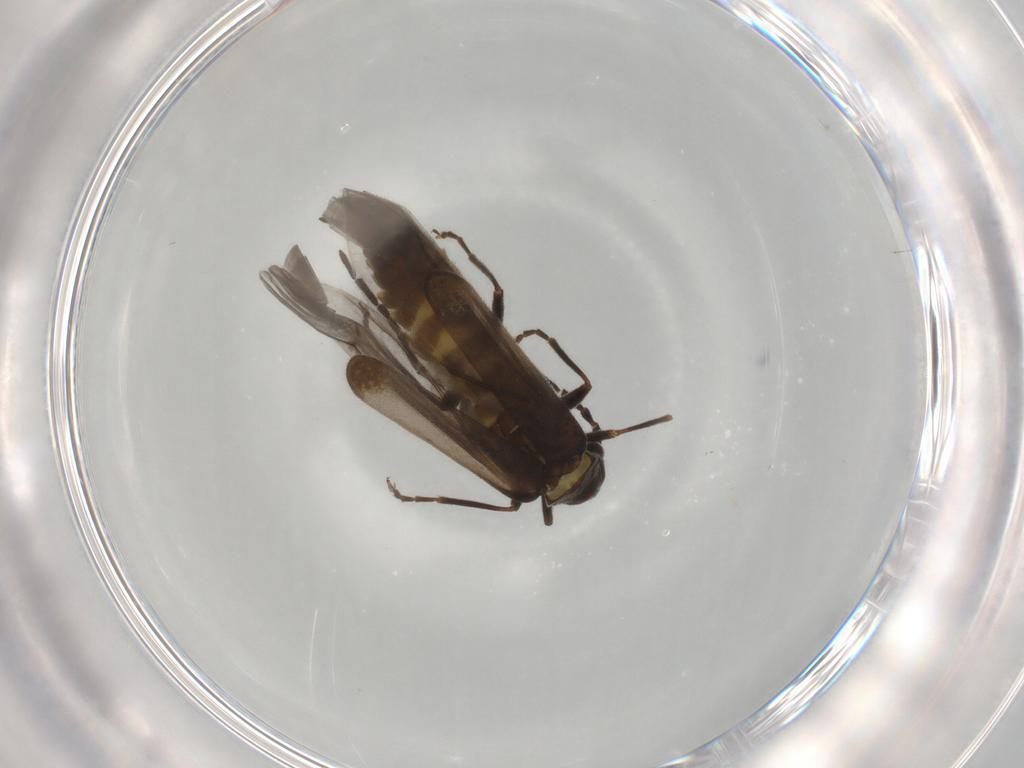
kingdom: Animalia
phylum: Arthropoda
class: Insecta
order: Coleoptera
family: Cantharidae
